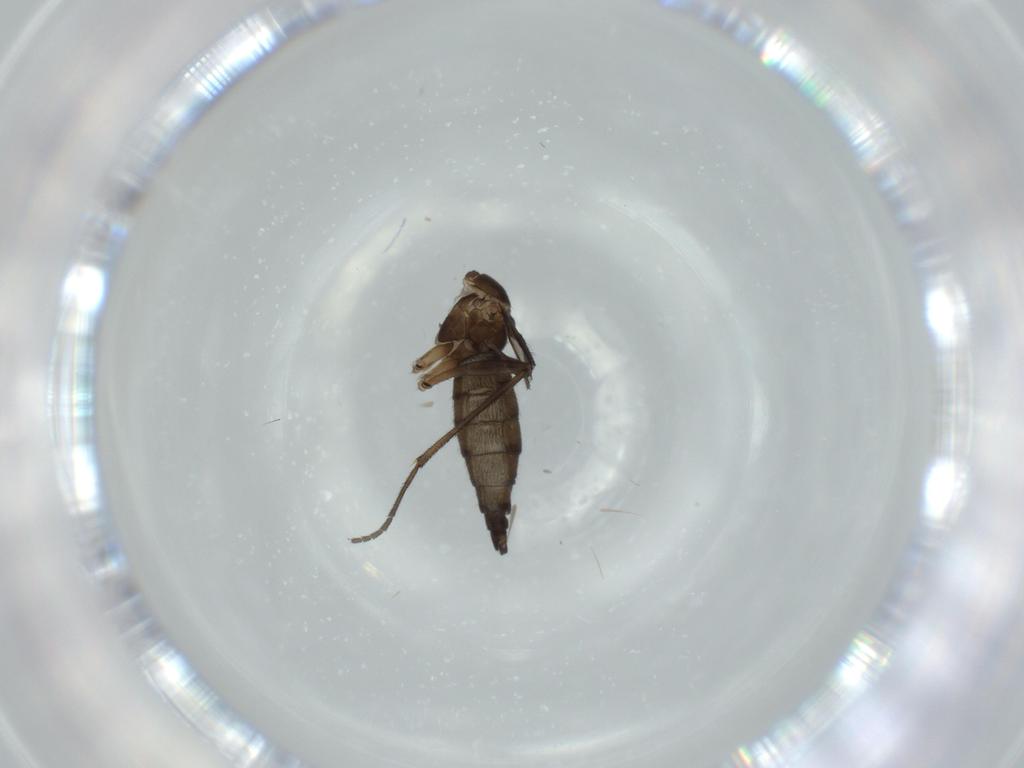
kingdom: Animalia
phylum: Arthropoda
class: Insecta
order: Diptera
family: Sciaridae
